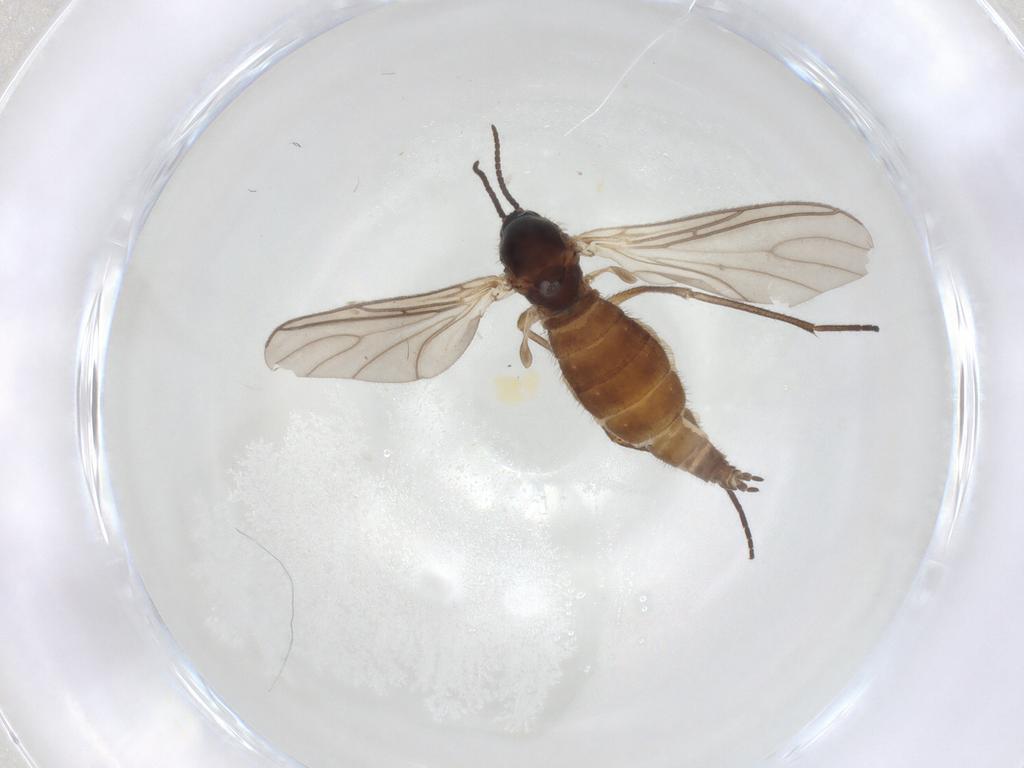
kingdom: Animalia
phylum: Arthropoda
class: Insecta
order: Diptera
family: Sciaridae
